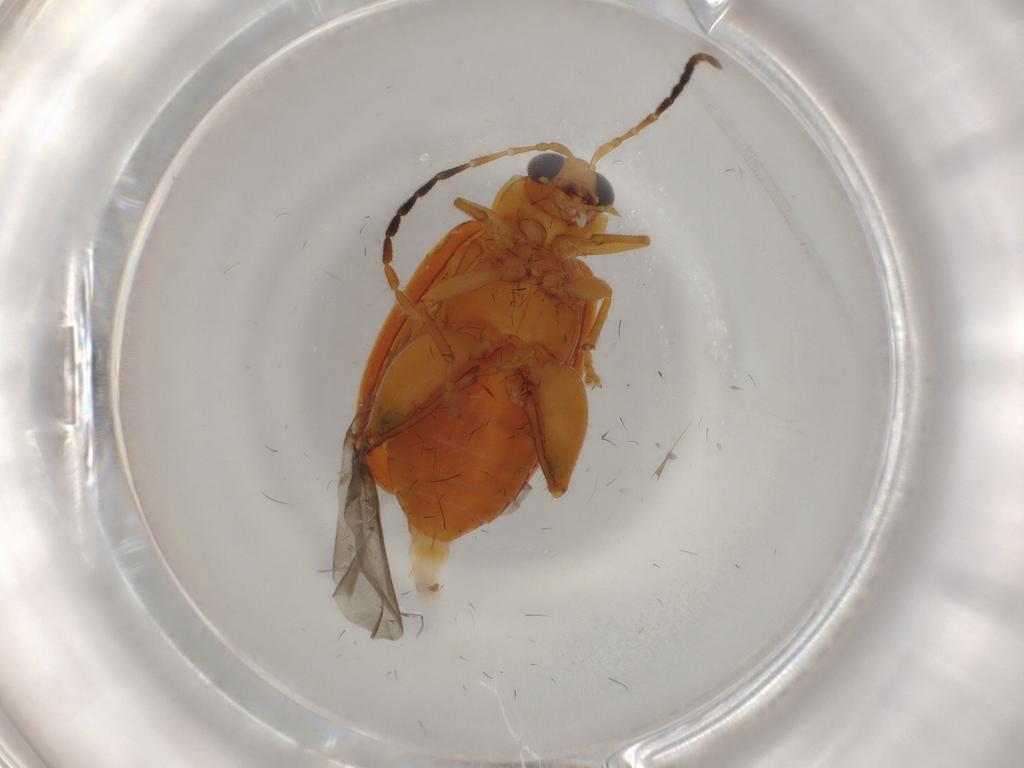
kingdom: Animalia
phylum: Arthropoda
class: Insecta
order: Coleoptera
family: Chrysomelidae
